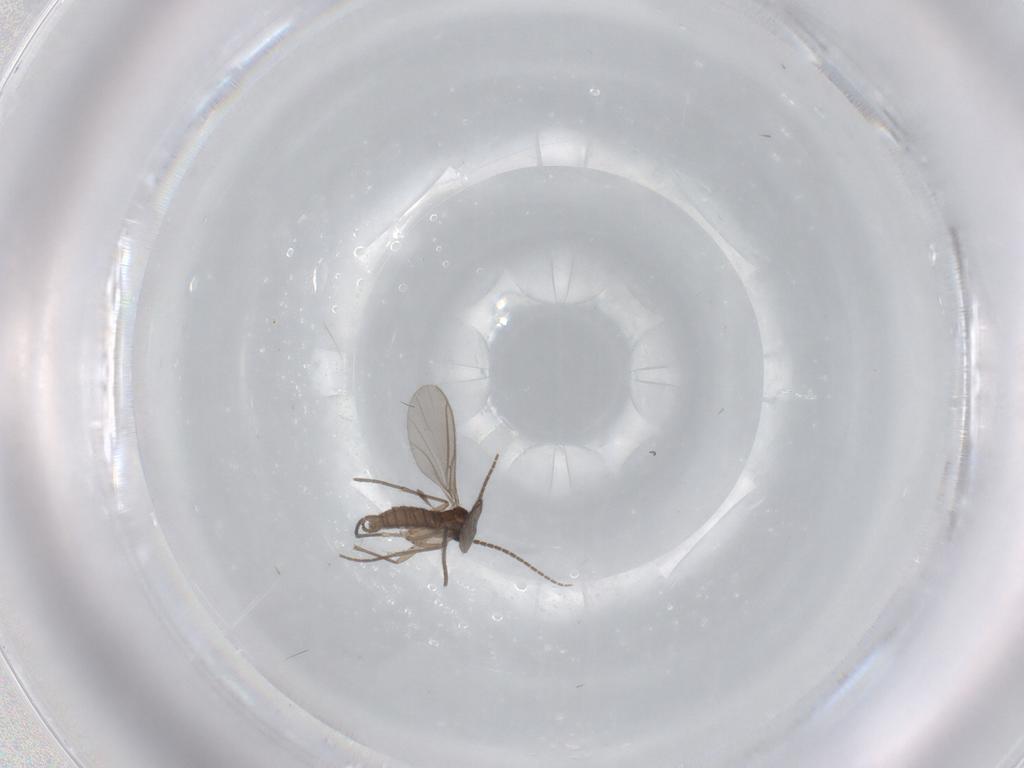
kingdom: Animalia
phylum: Arthropoda
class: Insecta
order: Diptera
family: Sciaridae
